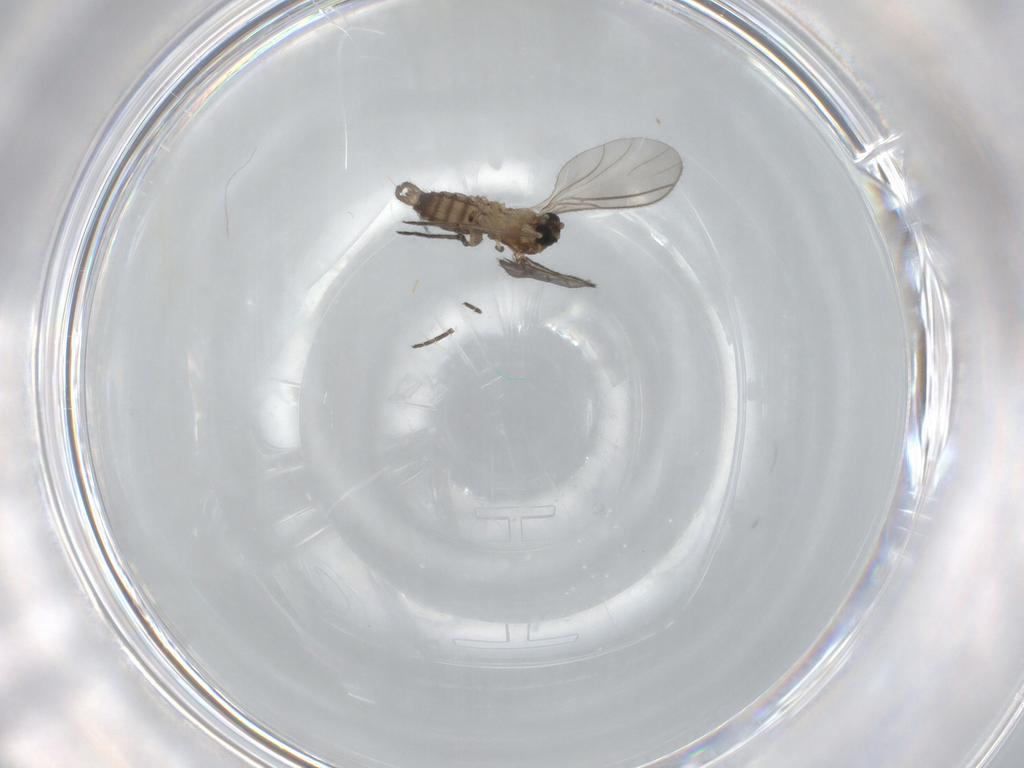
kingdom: Animalia
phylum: Arthropoda
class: Insecta
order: Diptera
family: Sciaridae
